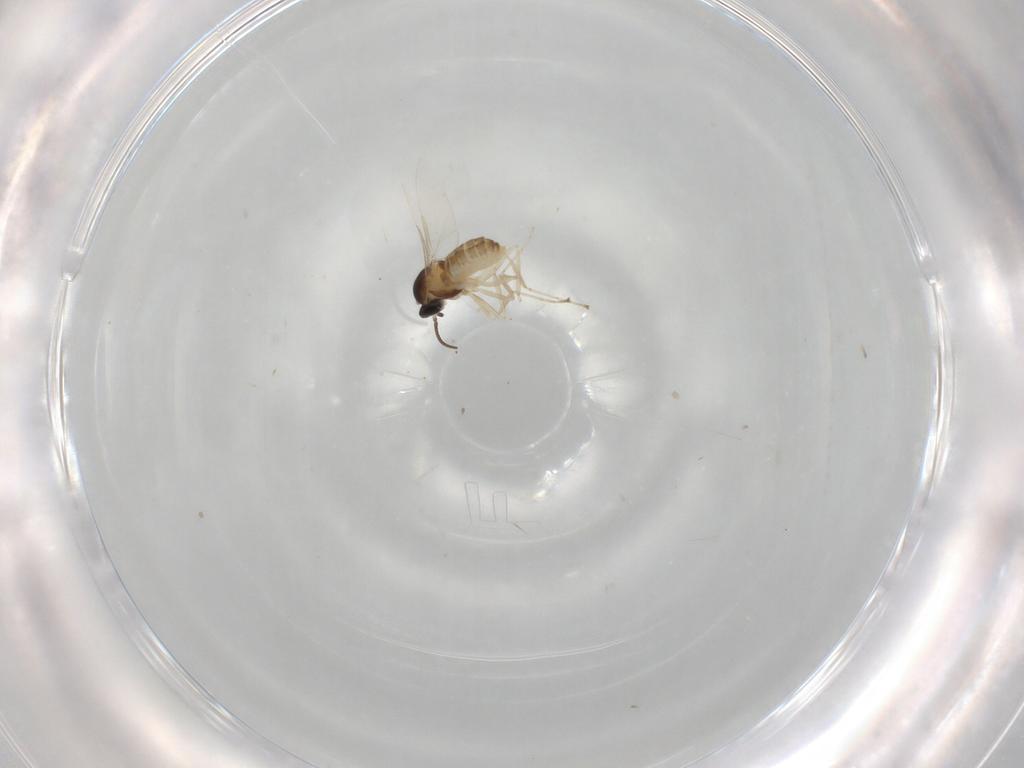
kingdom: Animalia
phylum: Arthropoda
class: Insecta
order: Diptera
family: Cecidomyiidae
